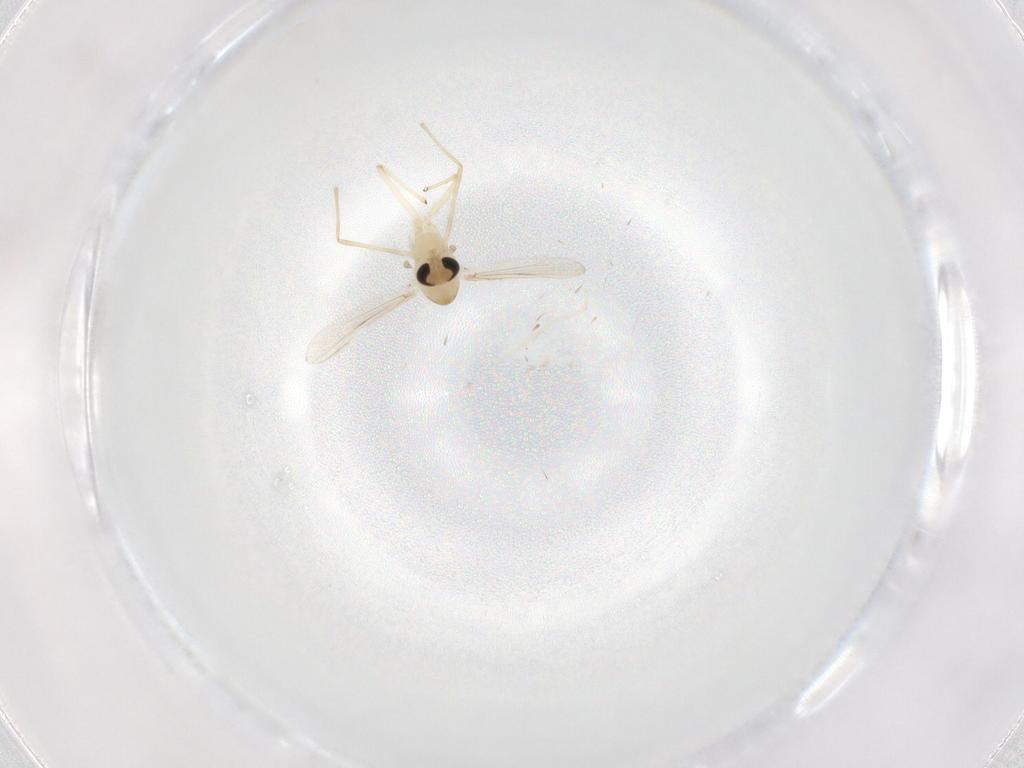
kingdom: Animalia
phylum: Arthropoda
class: Insecta
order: Diptera
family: Chironomidae
